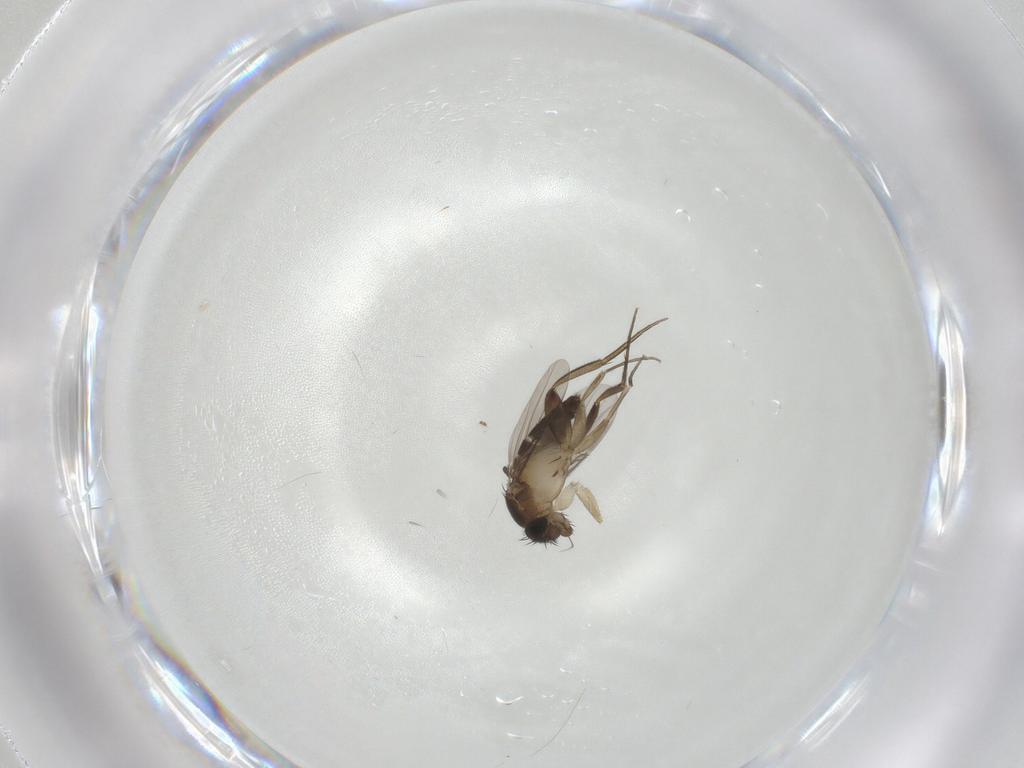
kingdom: Animalia
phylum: Arthropoda
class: Insecta
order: Diptera
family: Phoridae
